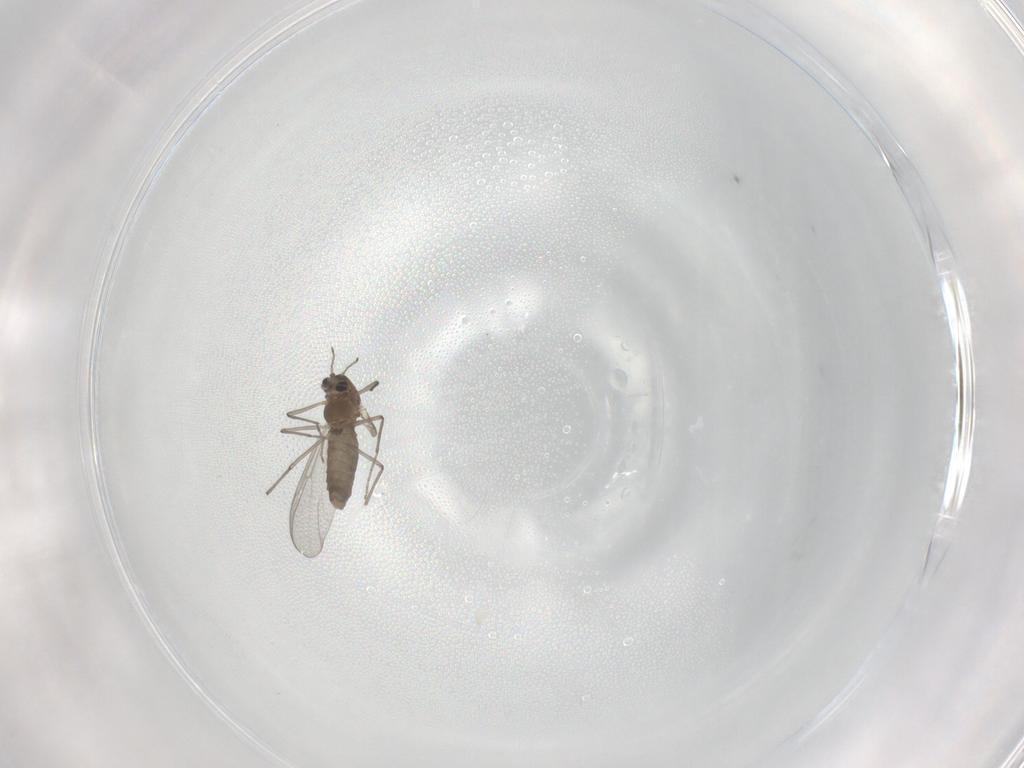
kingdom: Animalia
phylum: Arthropoda
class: Insecta
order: Diptera
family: Chironomidae
